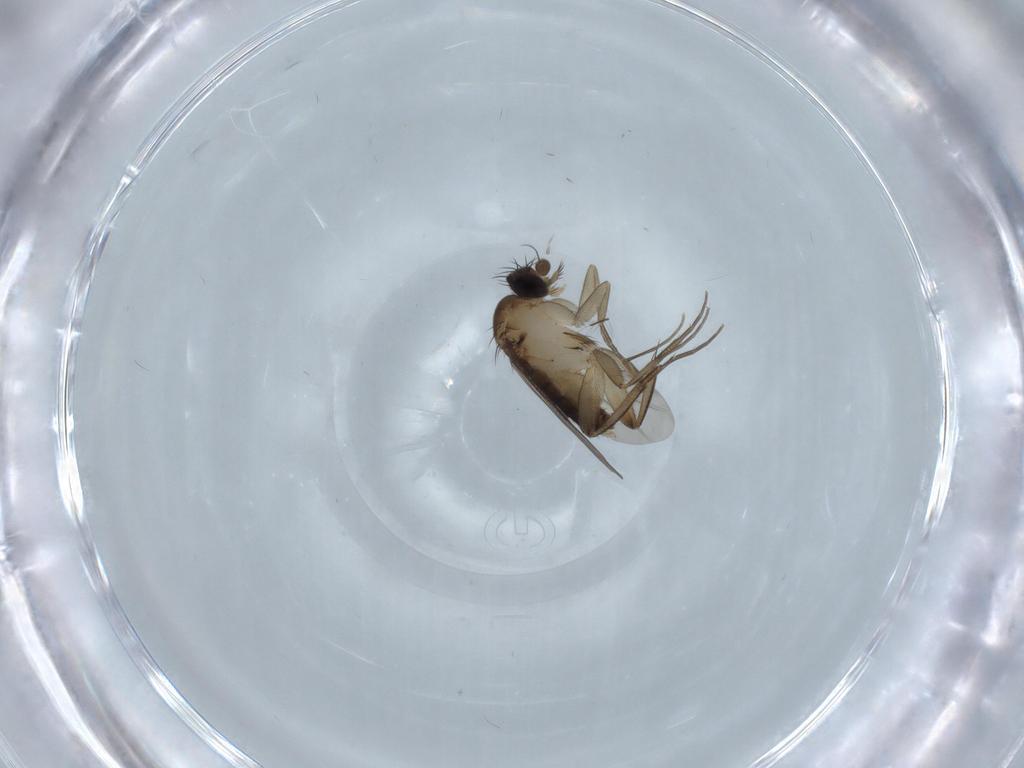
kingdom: Animalia
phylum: Arthropoda
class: Insecta
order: Diptera
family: Phoridae
